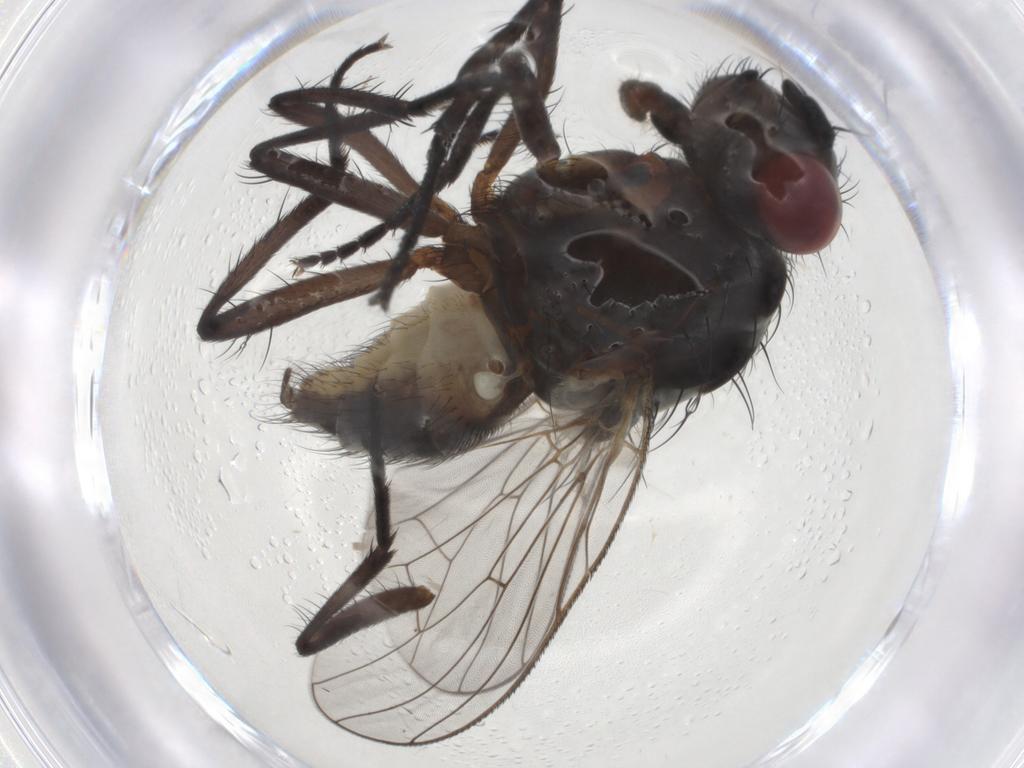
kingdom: Animalia
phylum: Arthropoda
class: Insecta
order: Diptera
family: Anthomyiidae
